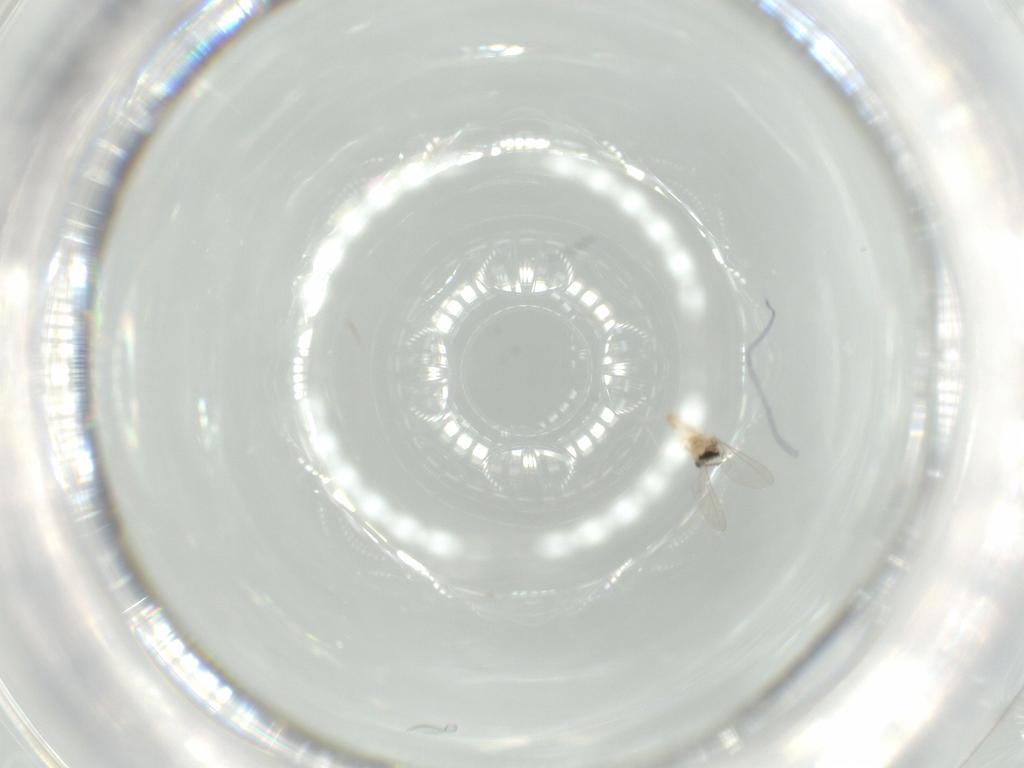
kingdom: Animalia
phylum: Arthropoda
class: Insecta
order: Diptera
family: Cecidomyiidae
